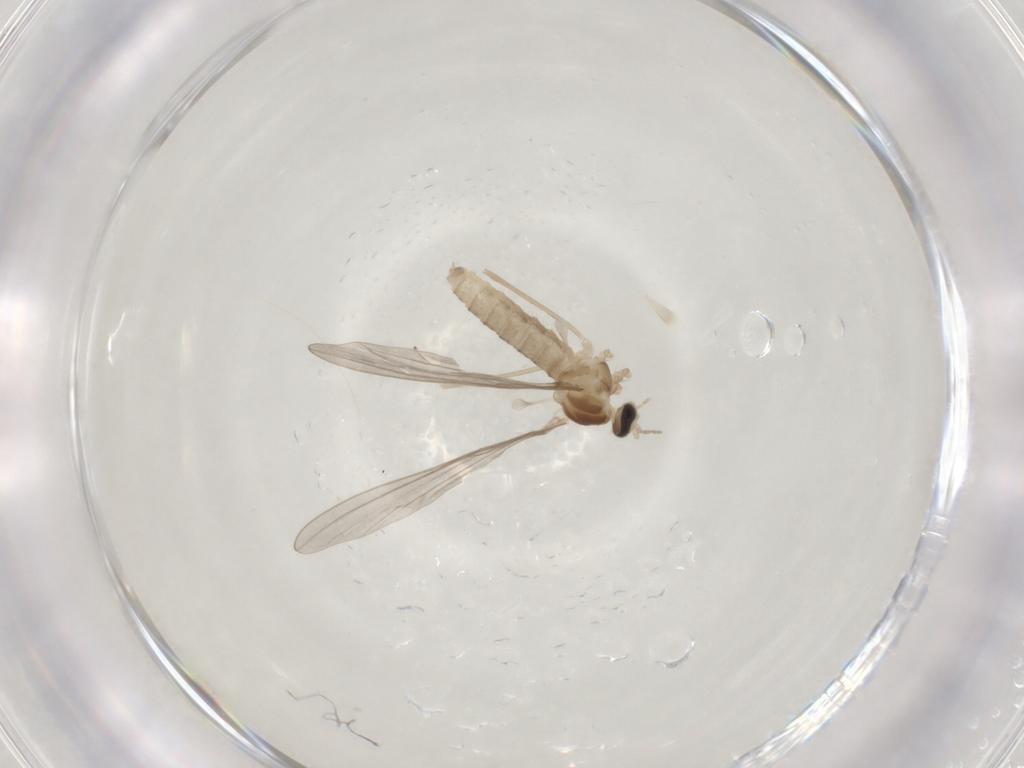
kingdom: Animalia
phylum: Arthropoda
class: Insecta
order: Diptera
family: Cecidomyiidae
